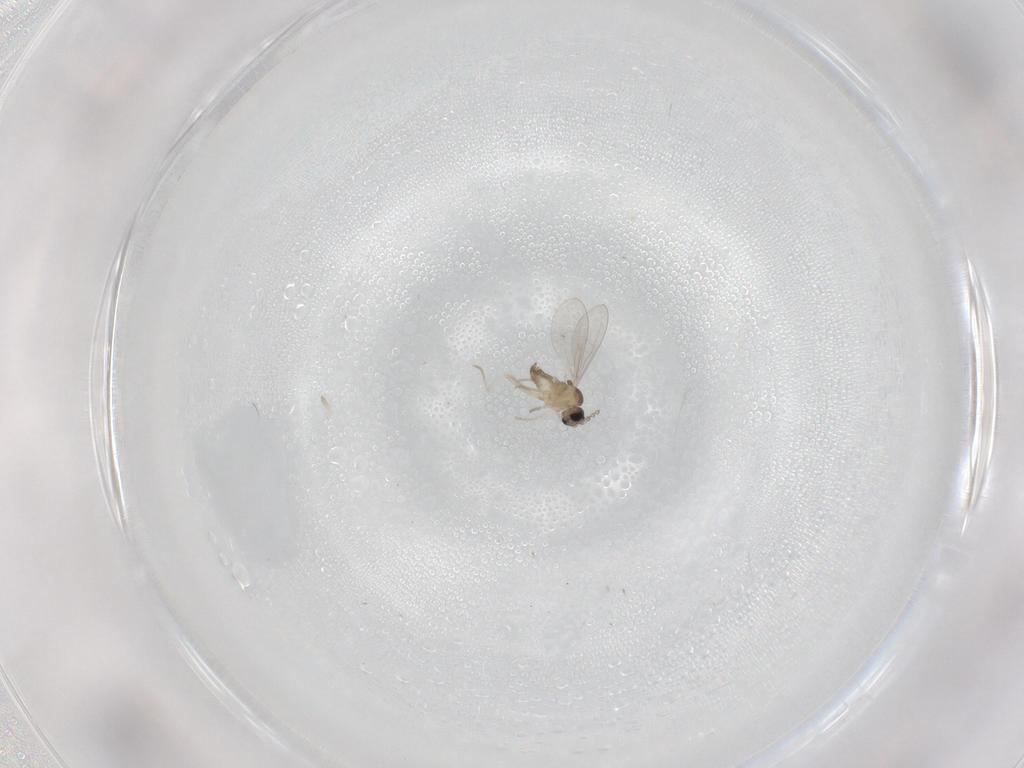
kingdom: Animalia
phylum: Arthropoda
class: Insecta
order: Diptera
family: Cecidomyiidae
